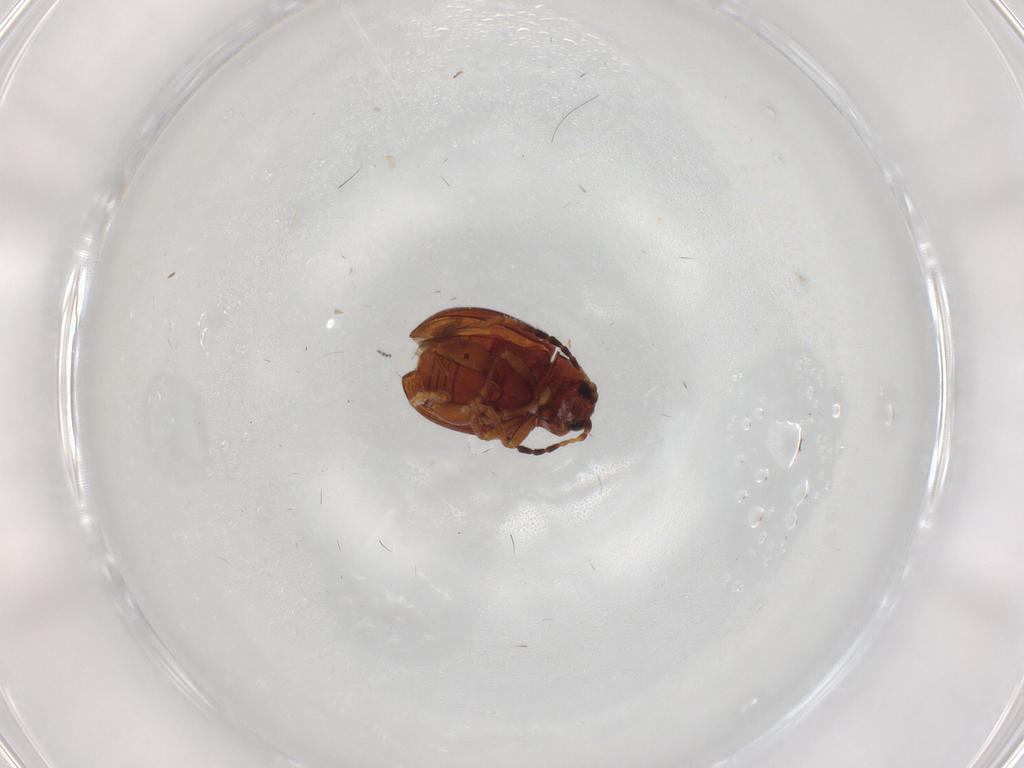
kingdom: Animalia
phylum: Arthropoda
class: Insecta
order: Coleoptera
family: Chrysomelidae
